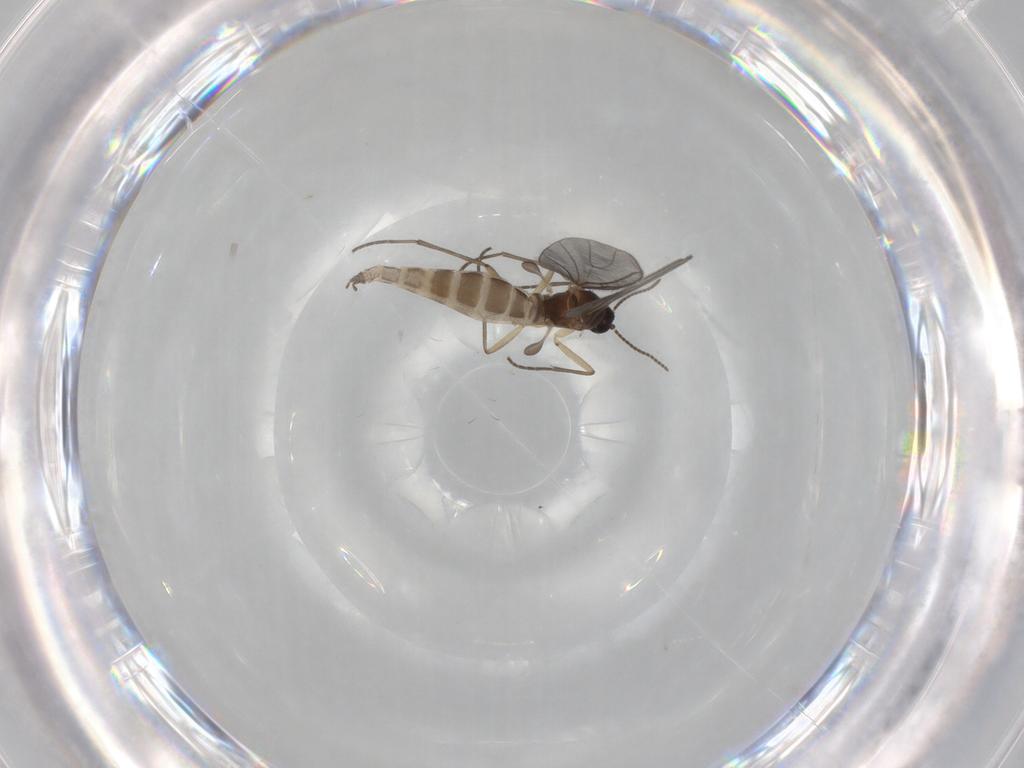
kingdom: Animalia
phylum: Arthropoda
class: Insecta
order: Diptera
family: Sciaridae
